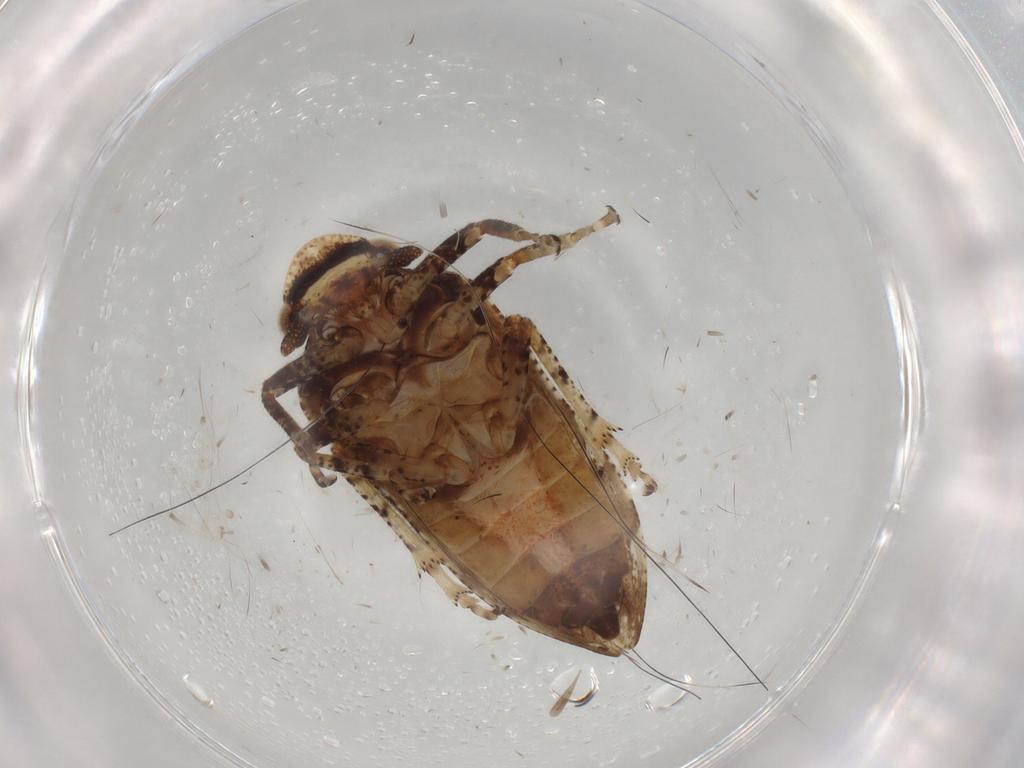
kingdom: Animalia
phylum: Arthropoda
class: Insecta
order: Hemiptera
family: Tettigometridae
